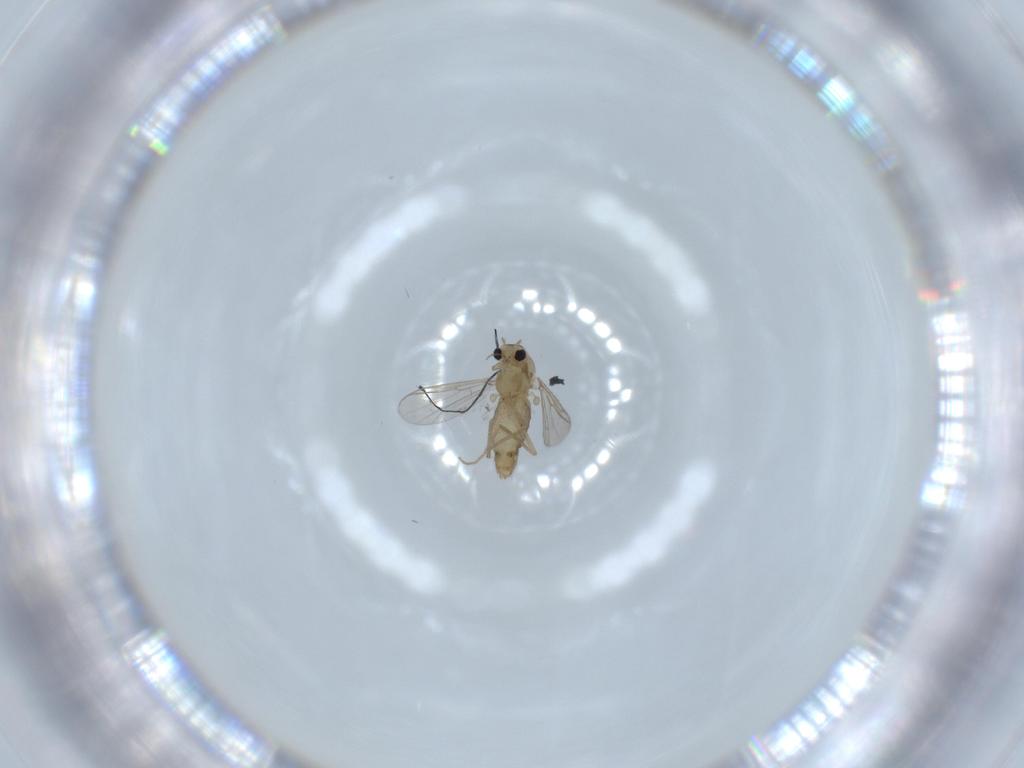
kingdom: Animalia
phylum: Arthropoda
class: Insecta
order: Diptera
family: Chironomidae
